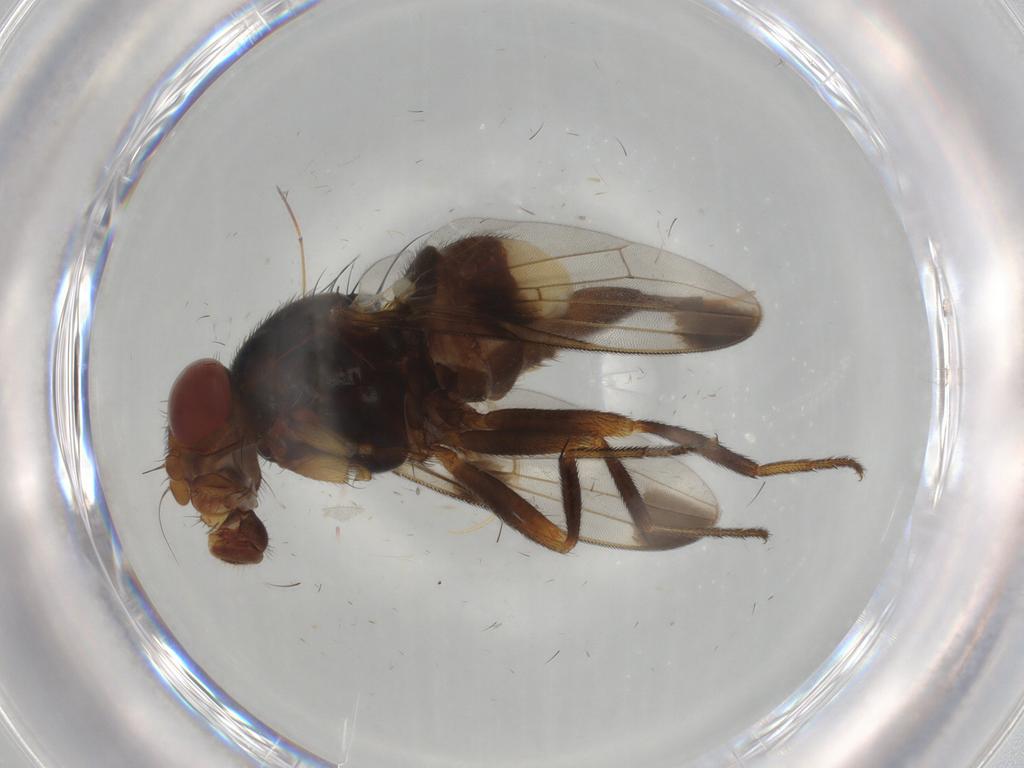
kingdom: Animalia
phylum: Arthropoda
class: Insecta
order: Diptera
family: Ulidiidae
